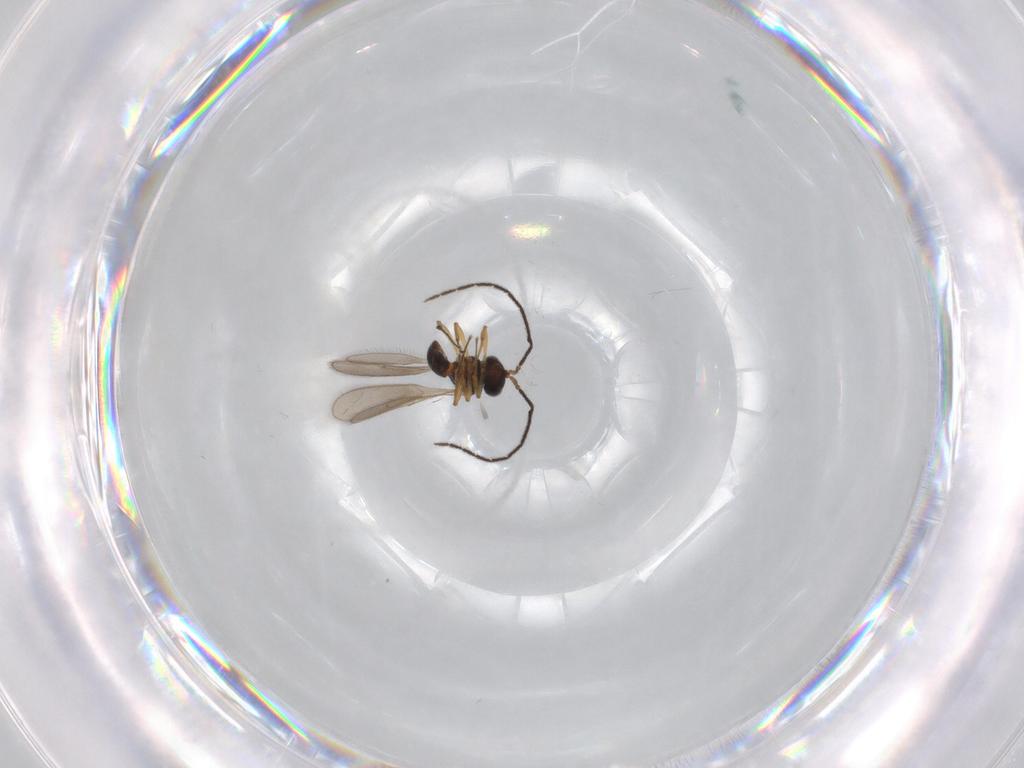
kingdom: Animalia
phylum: Arthropoda
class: Insecta
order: Hymenoptera
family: Scelionidae
